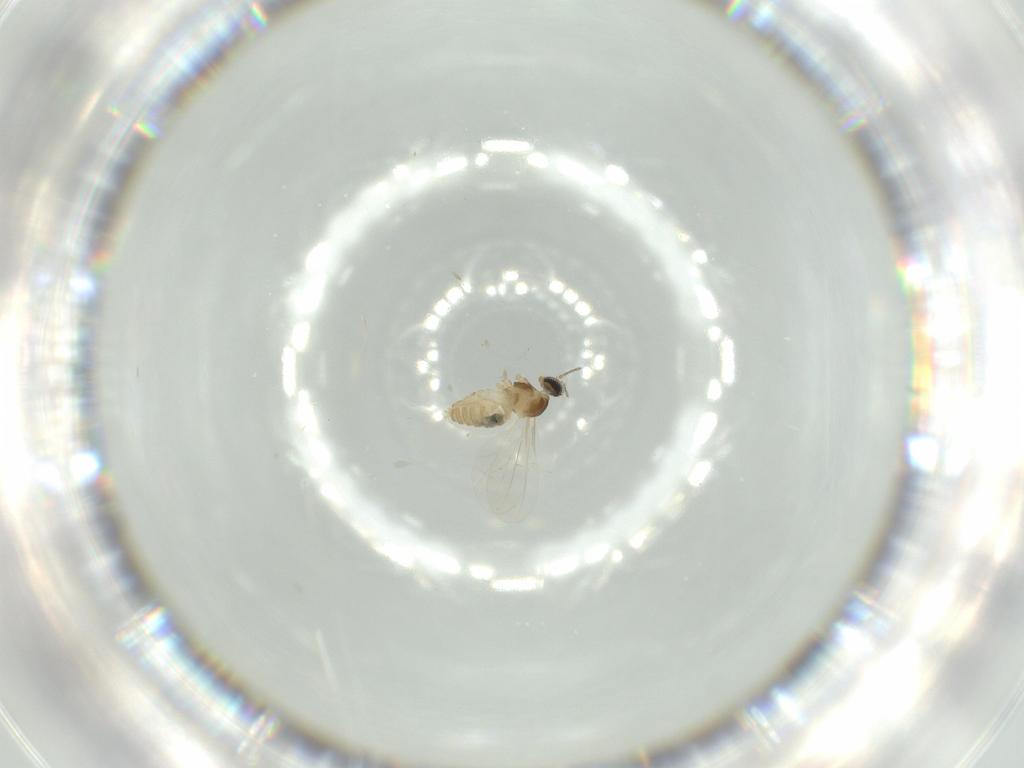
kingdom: Animalia
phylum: Arthropoda
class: Insecta
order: Diptera
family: Cecidomyiidae
